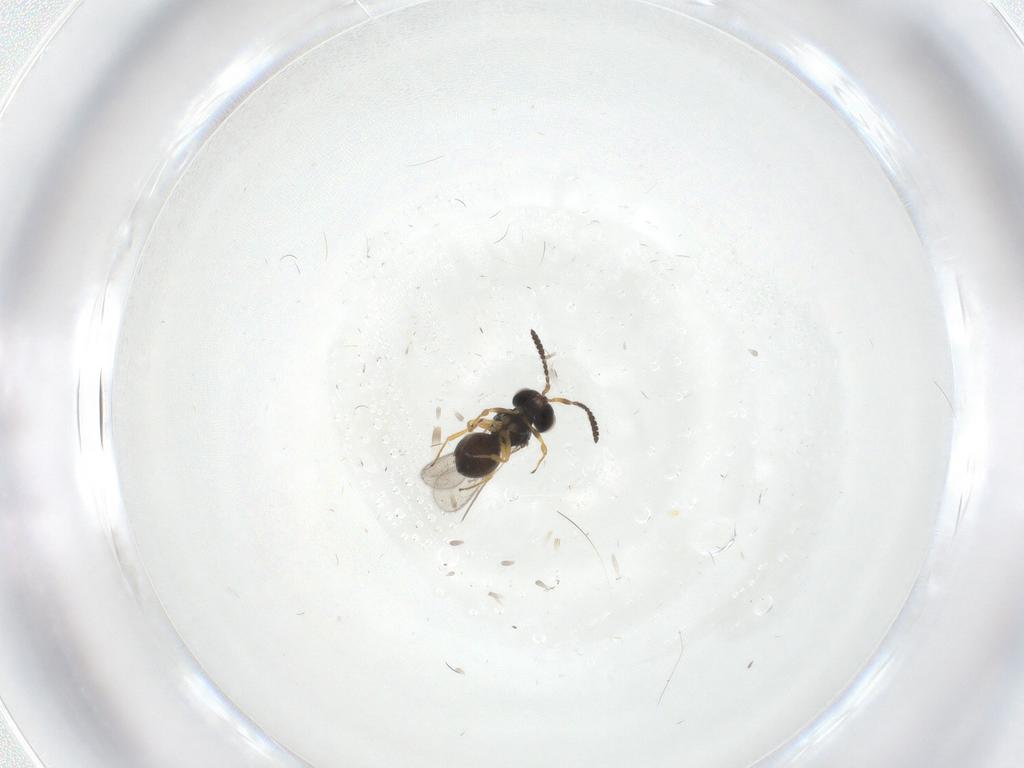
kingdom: Animalia
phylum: Arthropoda
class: Insecta
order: Hymenoptera
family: Scelionidae
